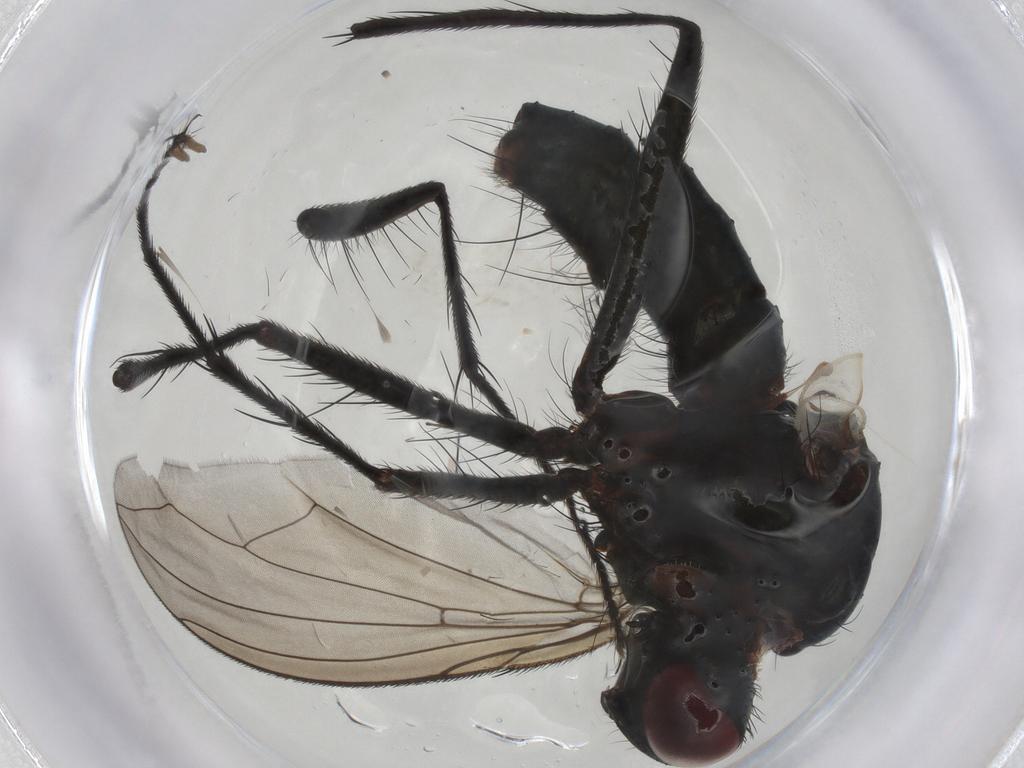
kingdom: Animalia
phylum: Arthropoda
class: Insecta
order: Diptera
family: Tachinidae
